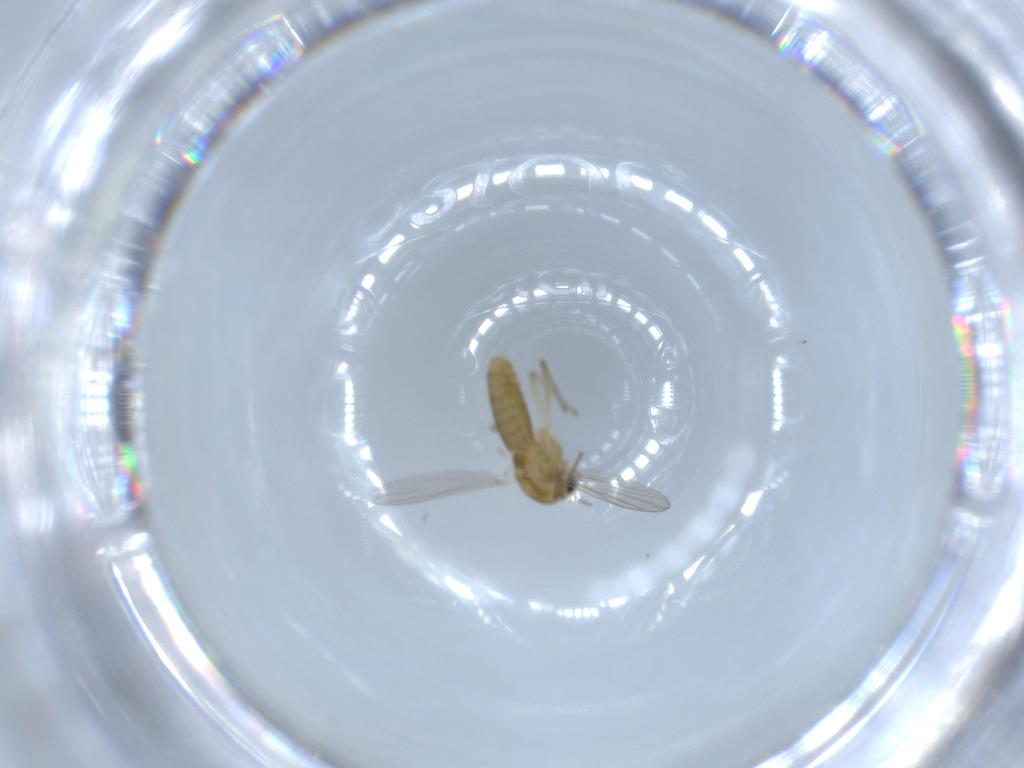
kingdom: Animalia
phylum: Arthropoda
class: Insecta
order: Diptera
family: Chironomidae
